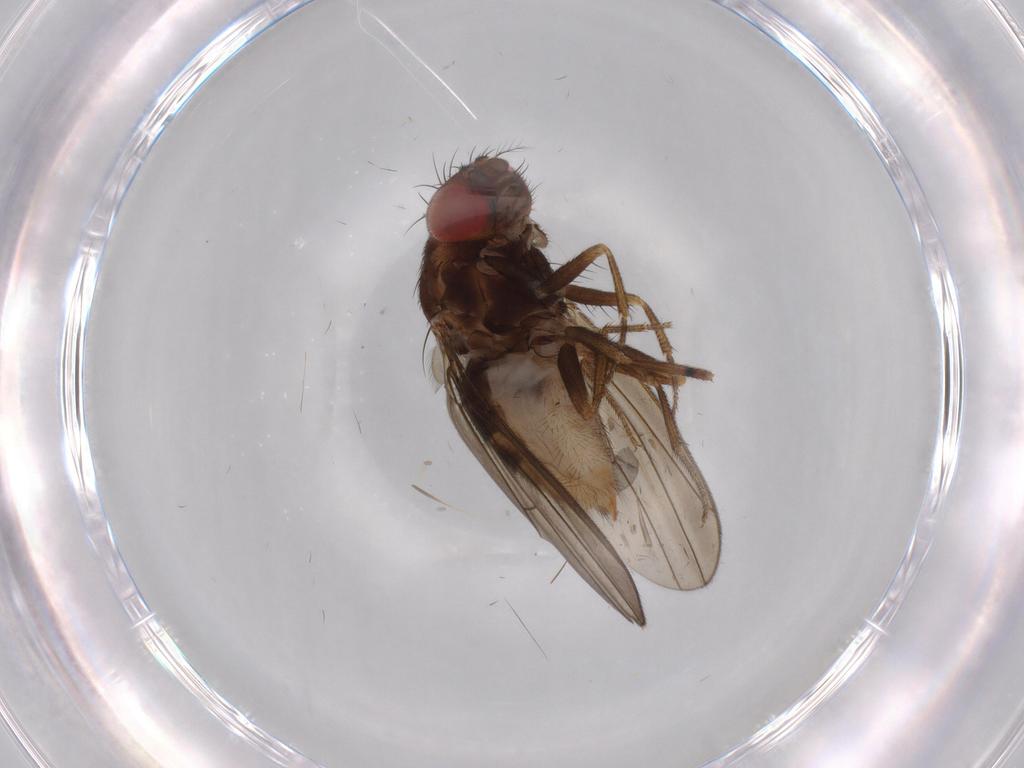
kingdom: Animalia
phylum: Arthropoda
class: Insecta
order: Diptera
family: Drosophilidae
